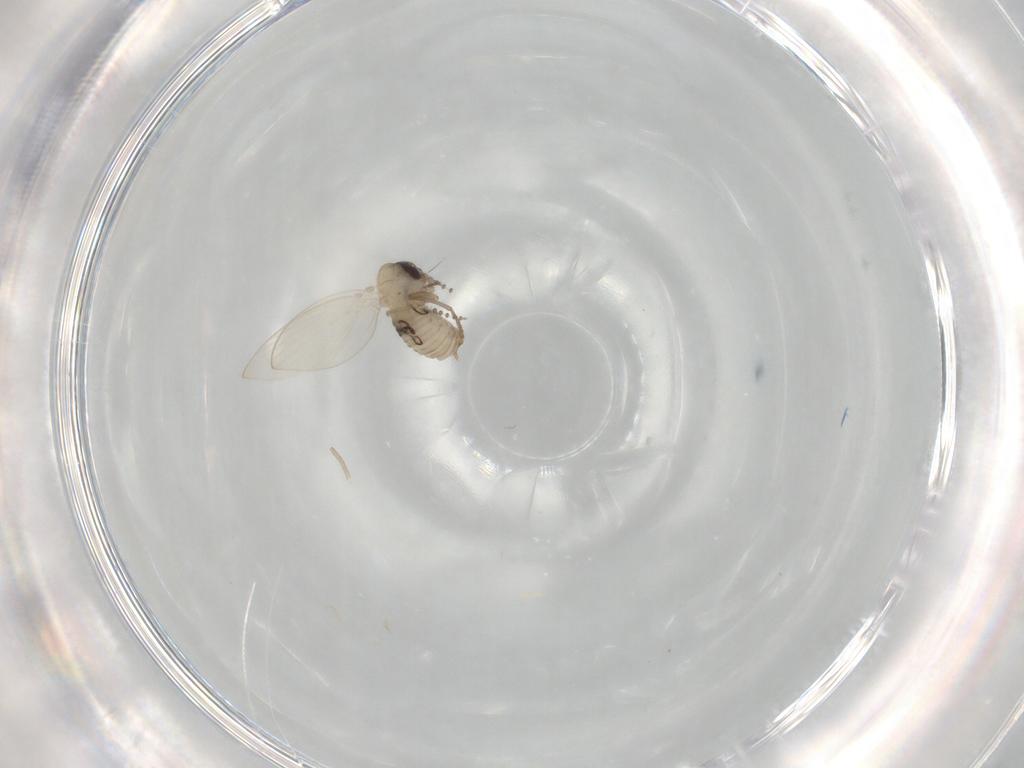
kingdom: Animalia
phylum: Arthropoda
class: Insecta
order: Diptera
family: Psychodidae
